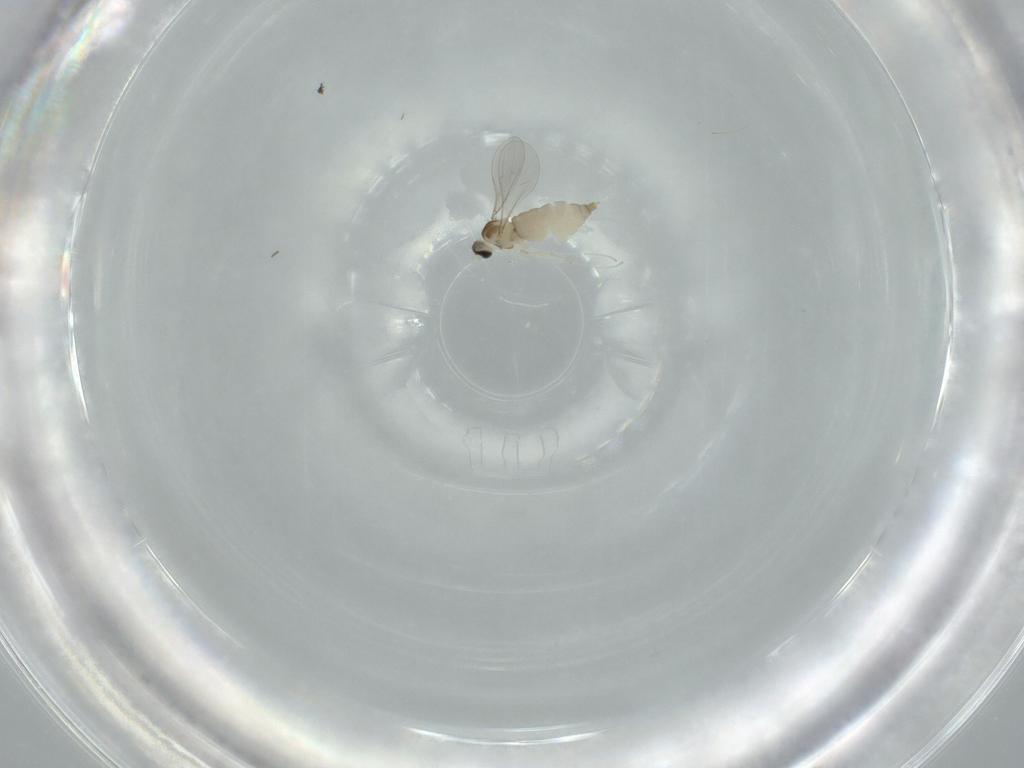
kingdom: Animalia
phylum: Arthropoda
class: Insecta
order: Diptera
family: Sciaridae
